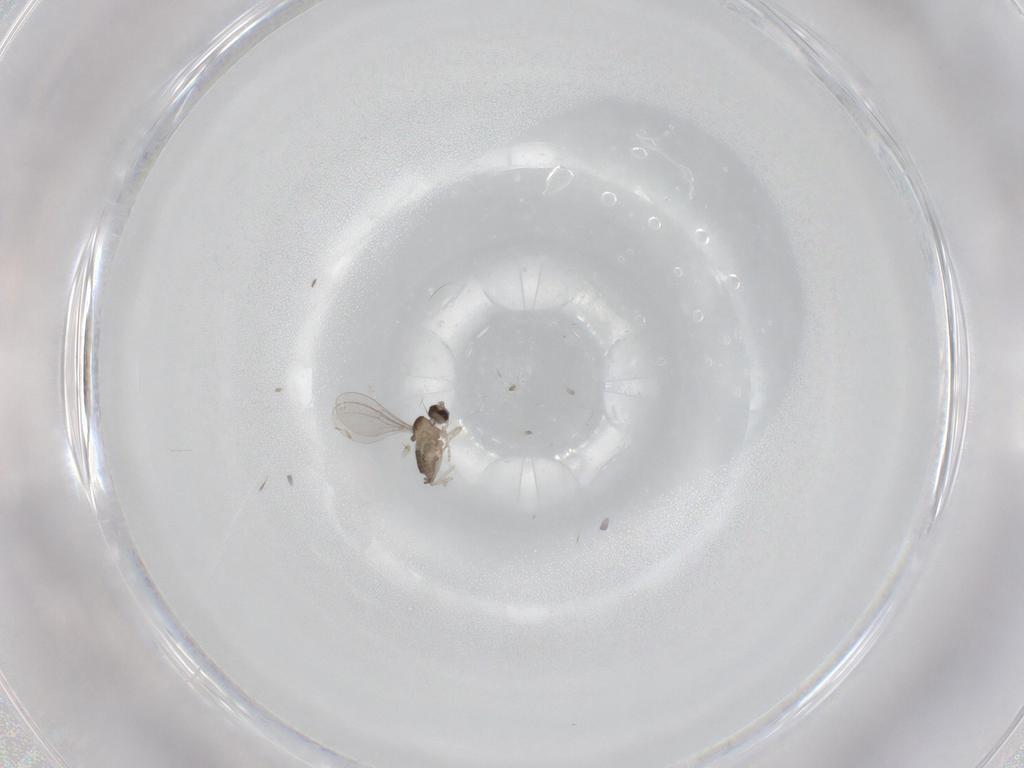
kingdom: Animalia
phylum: Arthropoda
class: Insecta
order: Diptera
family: Cecidomyiidae
